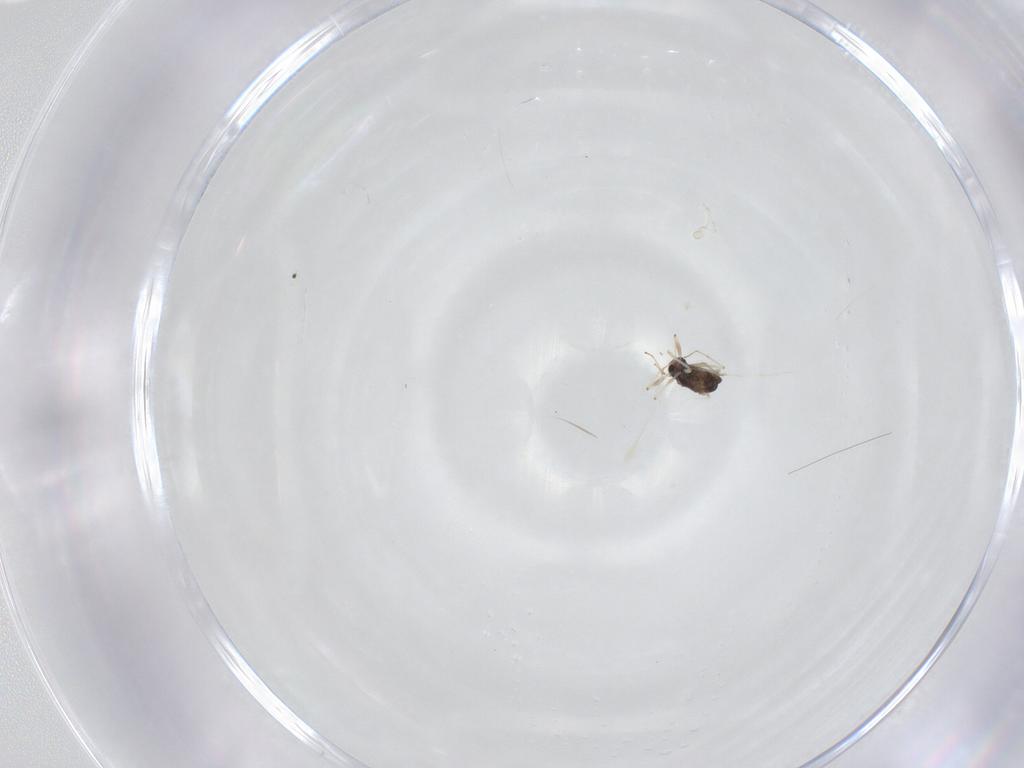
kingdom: Animalia
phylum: Arthropoda
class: Insecta
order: Diptera
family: Chironomidae
